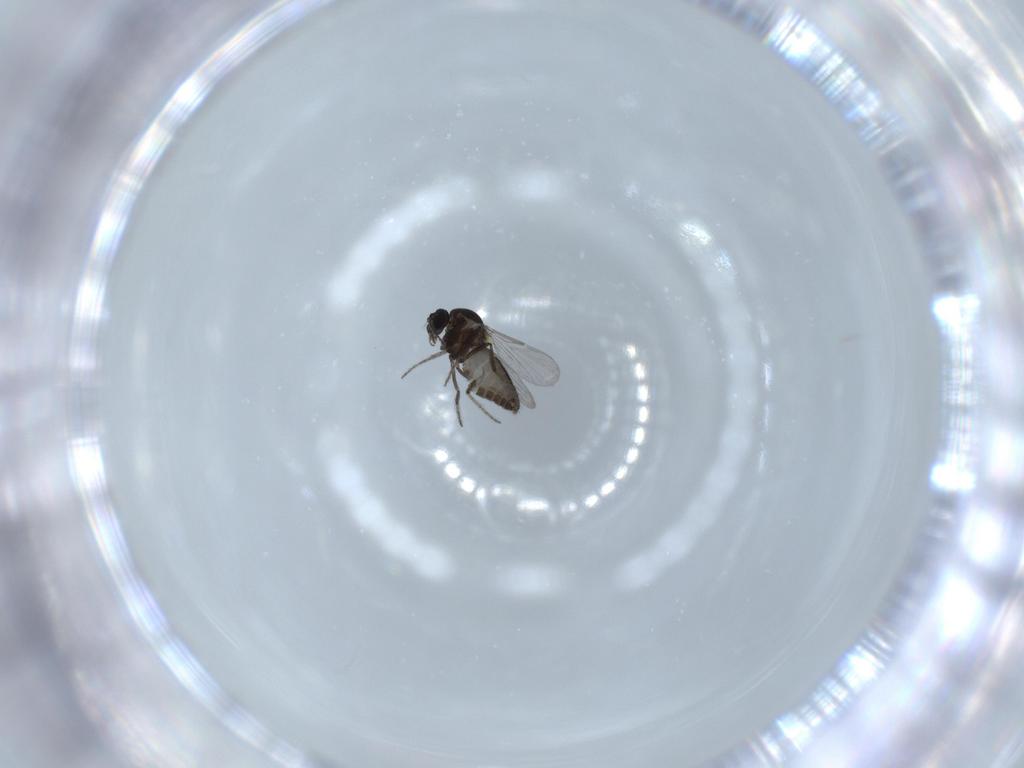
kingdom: Animalia
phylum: Arthropoda
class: Insecta
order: Diptera
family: Ceratopogonidae
